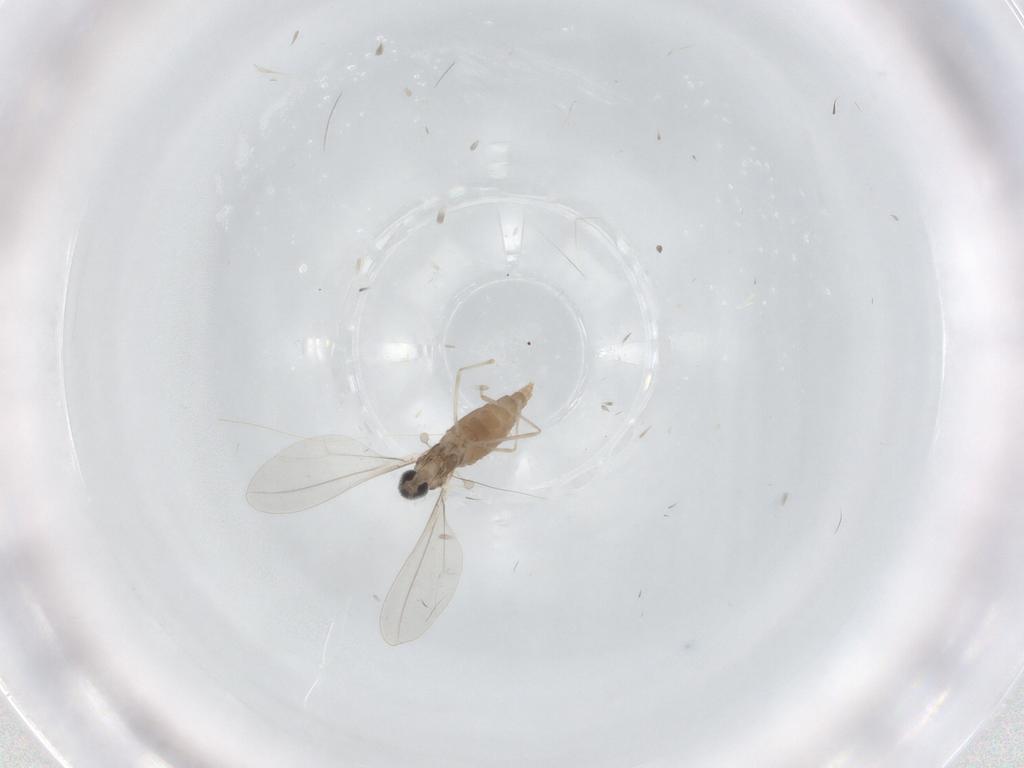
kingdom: Animalia
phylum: Arthropoda
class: Insecta
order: Diptera
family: Cecidomyiidae
